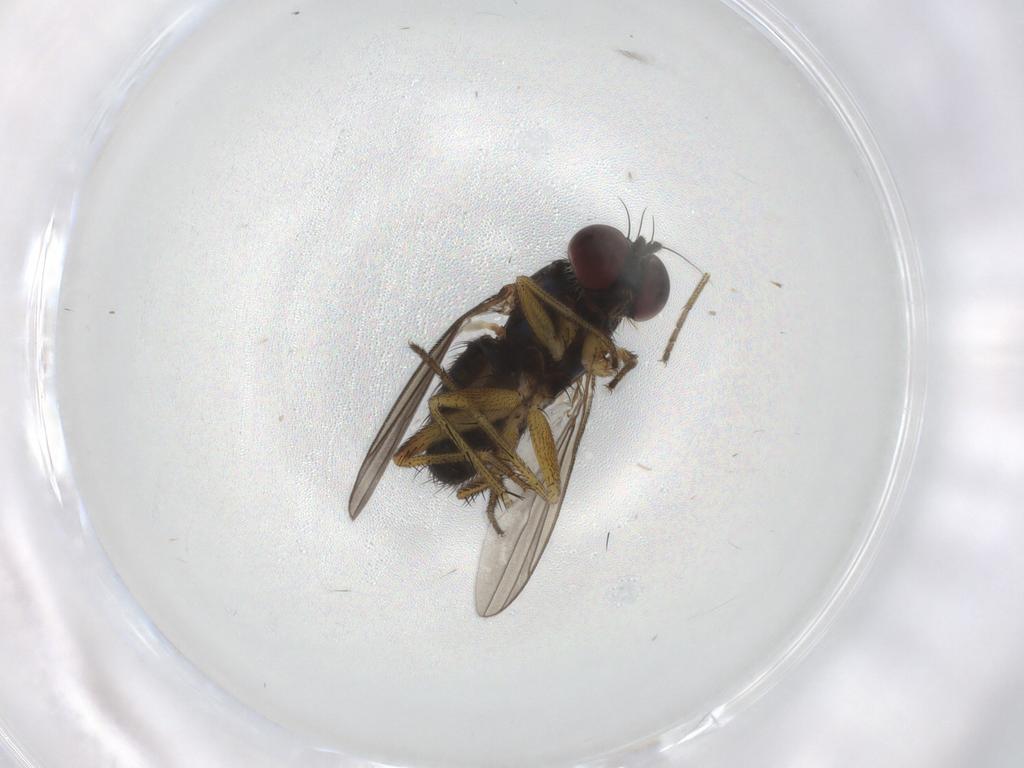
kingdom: Animalia
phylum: Arthropoda
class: Insecta
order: Diptera
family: Dolichopodidae
